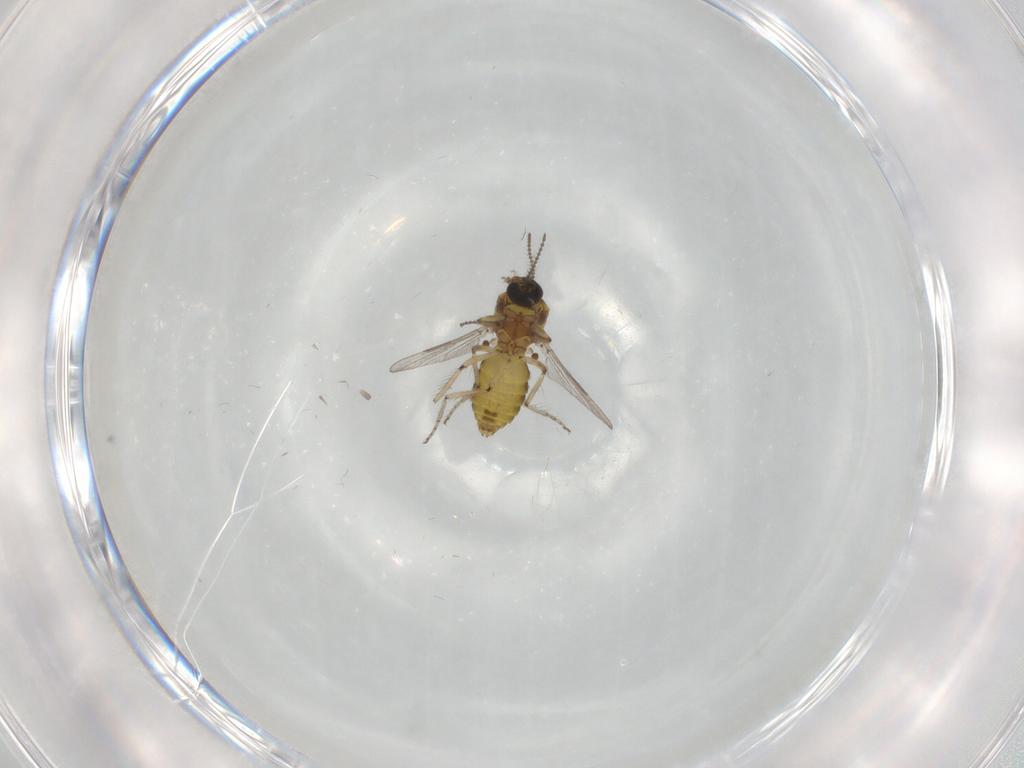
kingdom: Animalia
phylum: Arthropoda
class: Insecta
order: Diptera
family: Ceratopogonidae
